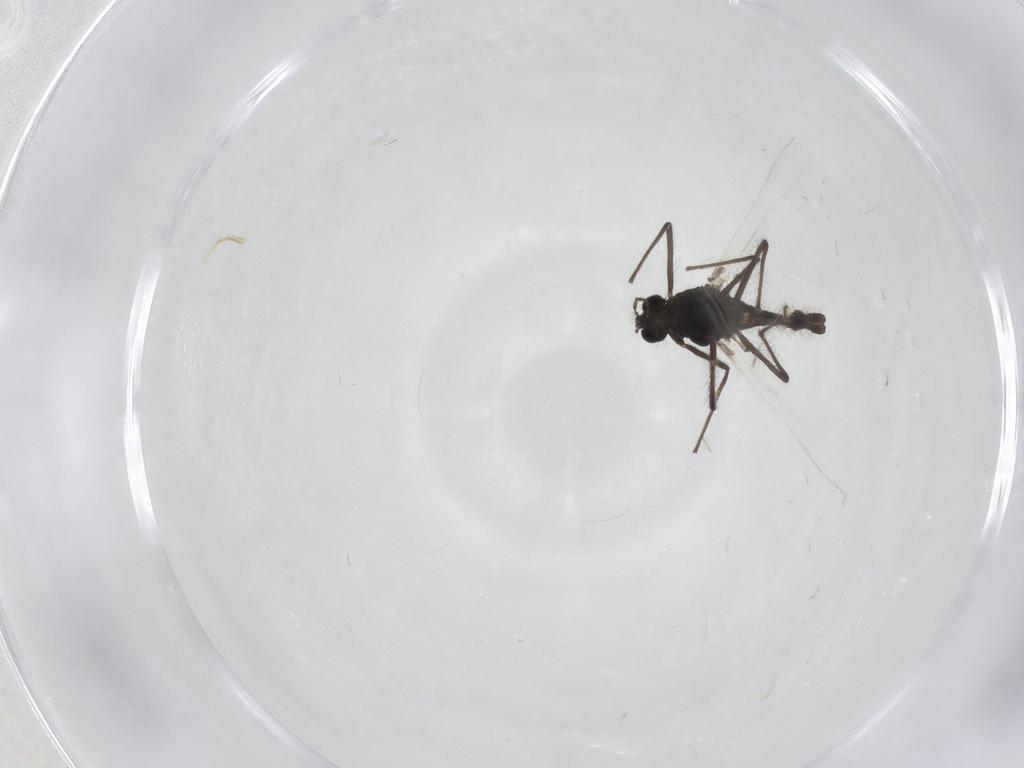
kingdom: Animalia
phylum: Arthropoda
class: Insecta
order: Diptera
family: Chironomidae
